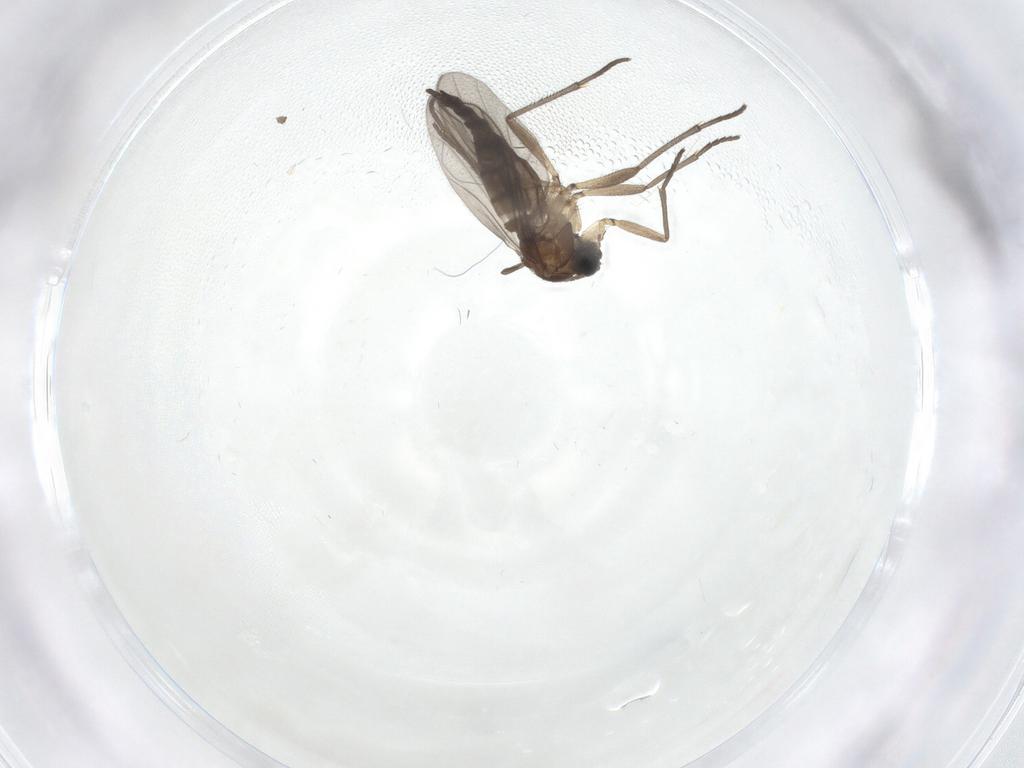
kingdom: Animalia
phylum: Arthropoda
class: Insecta
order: Diptera
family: Sciaridae
